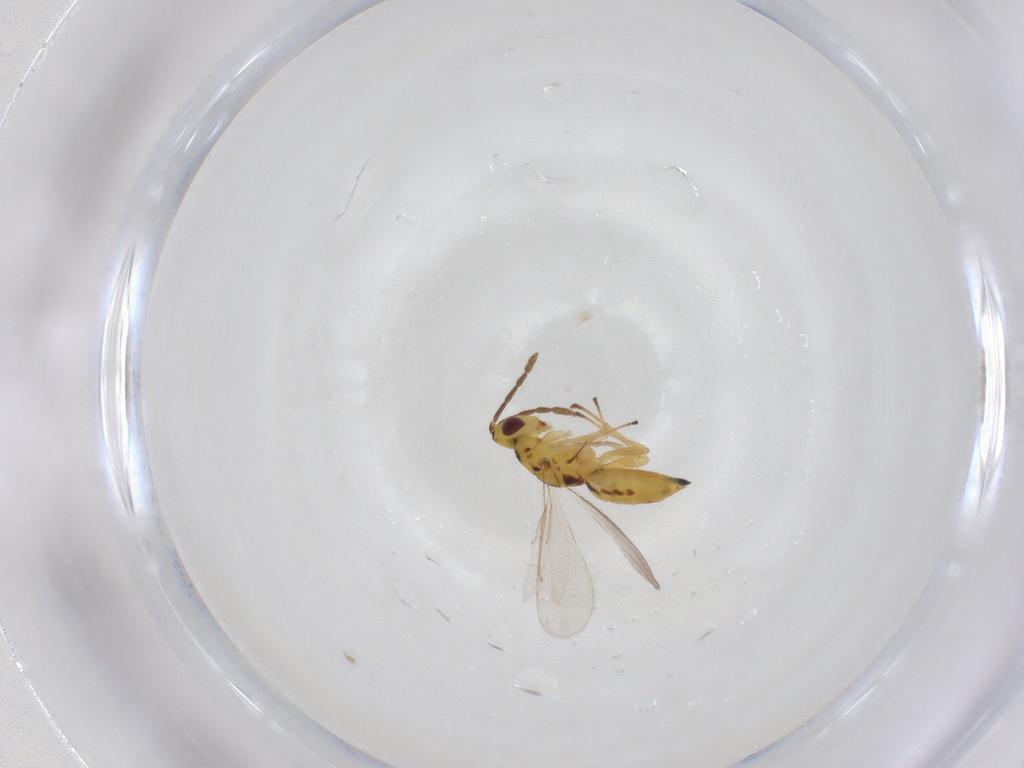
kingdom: Animalia
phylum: Arthropoda
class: Insecta
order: Hymenoptera
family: Eulophidae
